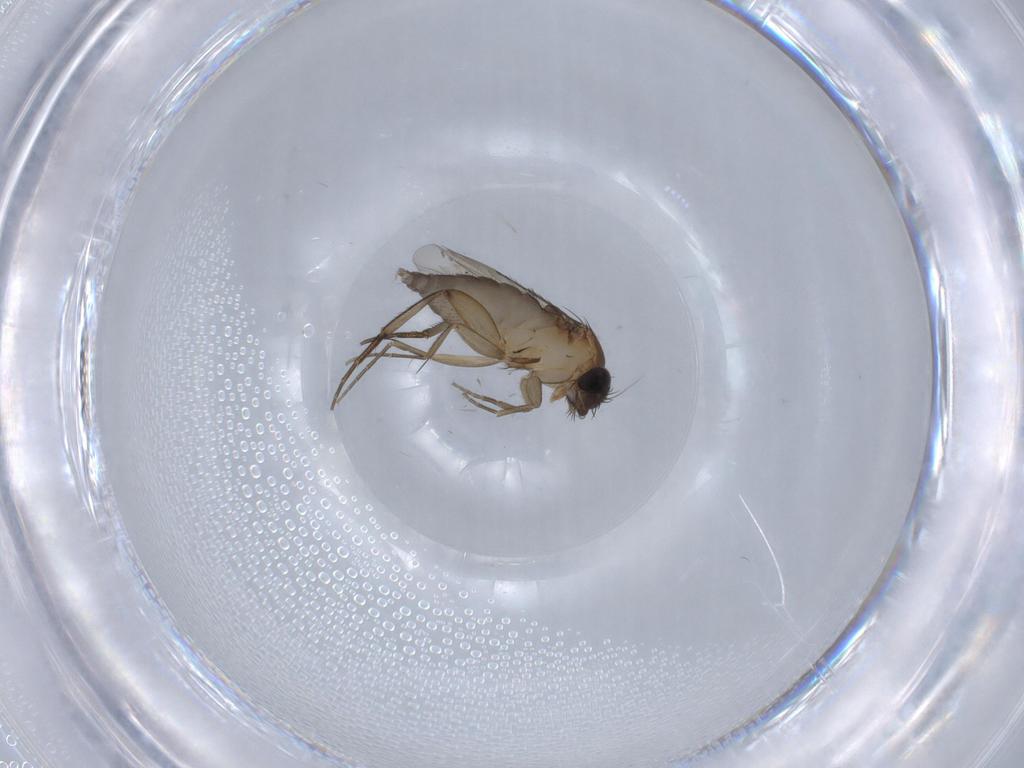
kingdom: Animalia
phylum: Arthropoda
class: Insecta
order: Diptera
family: Phoridae
